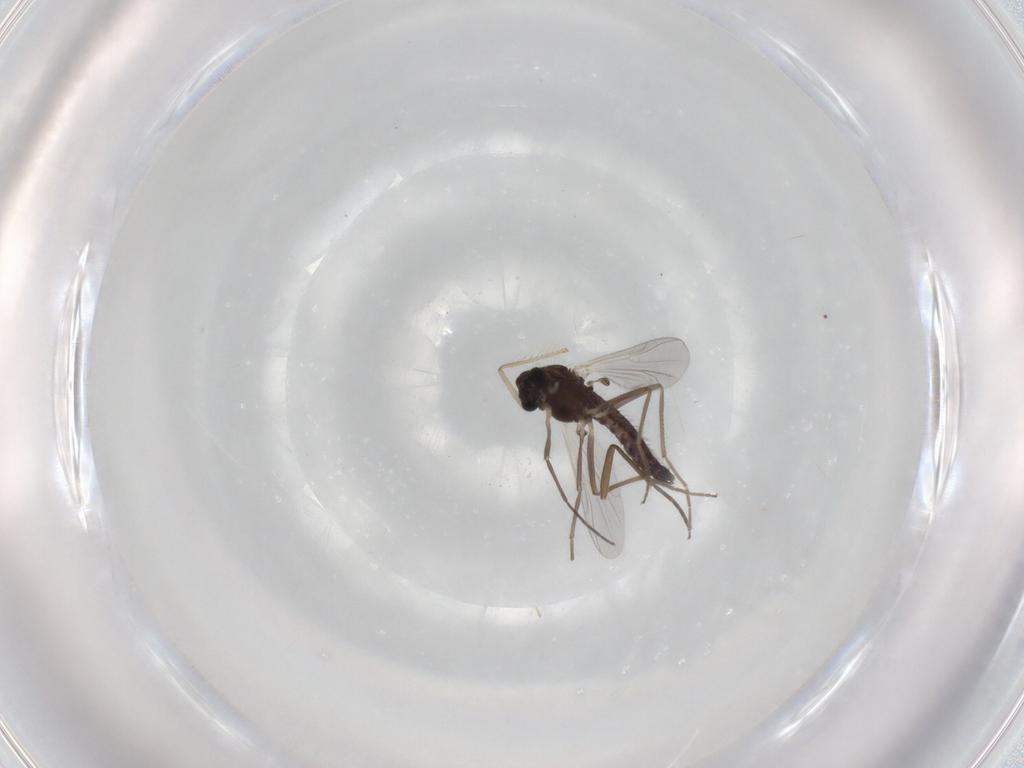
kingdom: Animalia
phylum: Arthropoda
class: Insecta
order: Diptera
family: Chironomidae
